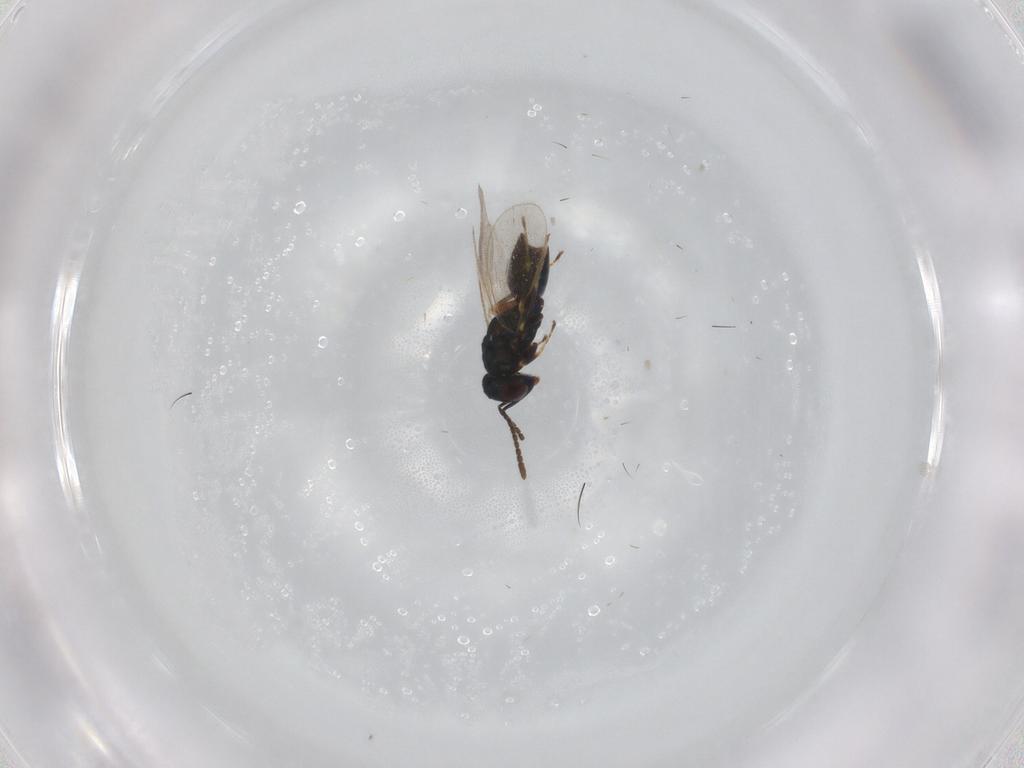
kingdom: Animalia
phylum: Arthropoda
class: Insecta
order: Hymenoptera
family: Pteromalidae
